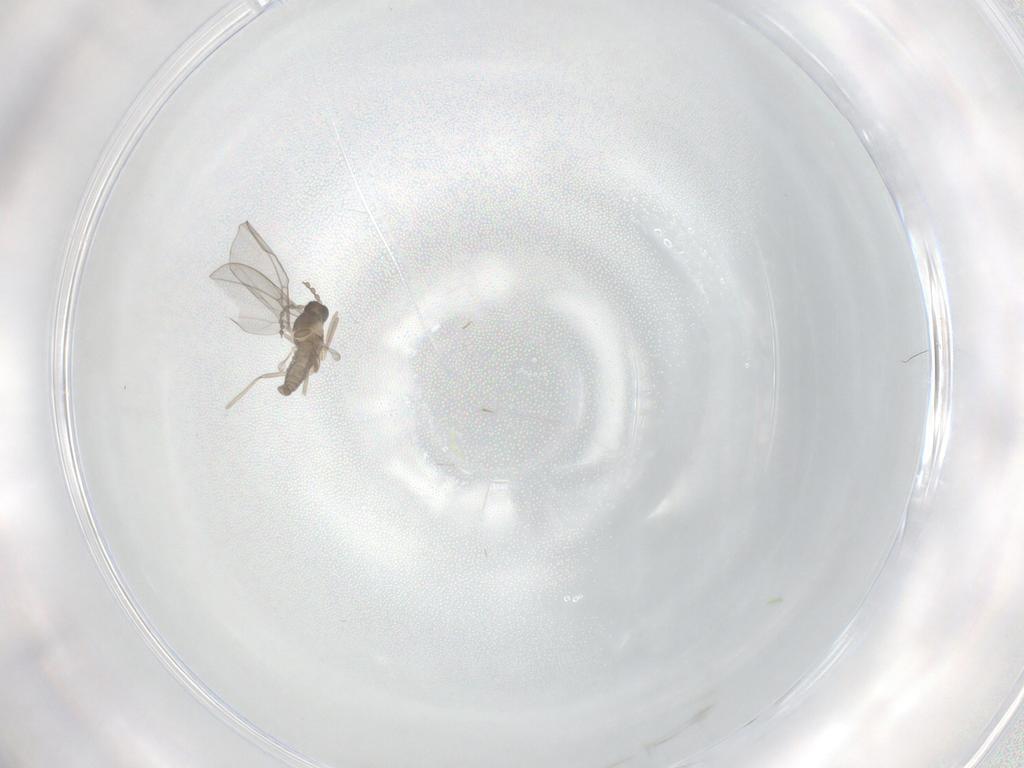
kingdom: Animalia
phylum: Arthropoda
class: Insecta
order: Diptera
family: Cecidomyiidae
